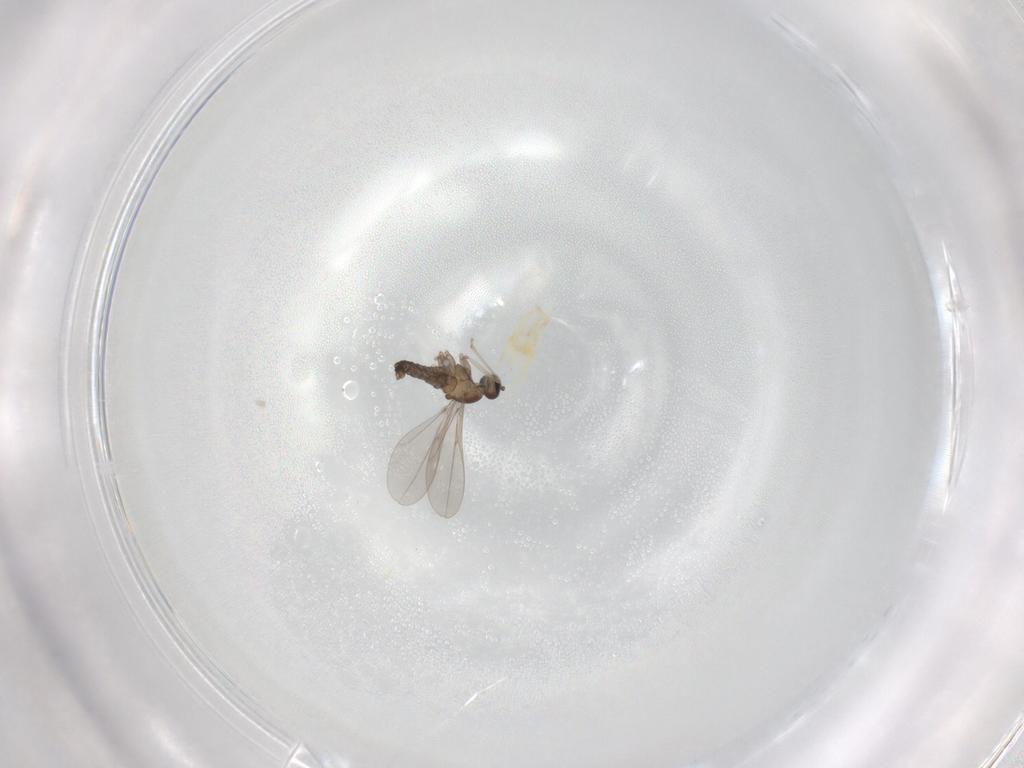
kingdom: Animalia
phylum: Arthropoda
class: Insecta
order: Diptera
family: Cecidomyiidae
